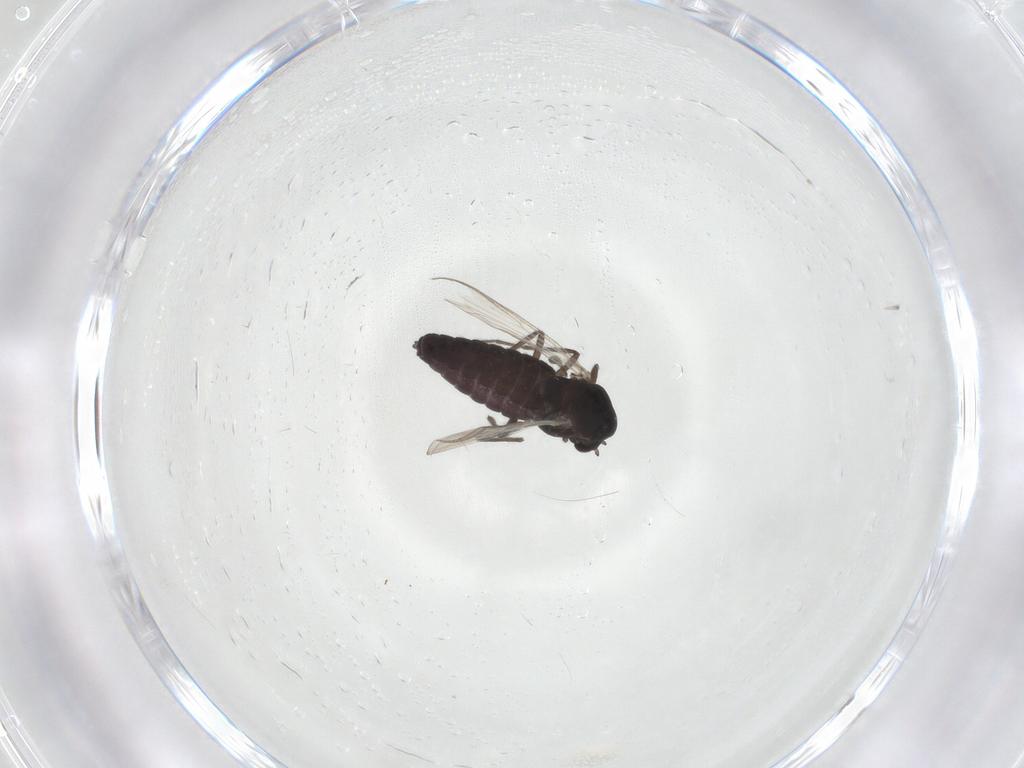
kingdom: Animalia
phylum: Arthropoda
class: Insecta
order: Diptera
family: Chironomidae
